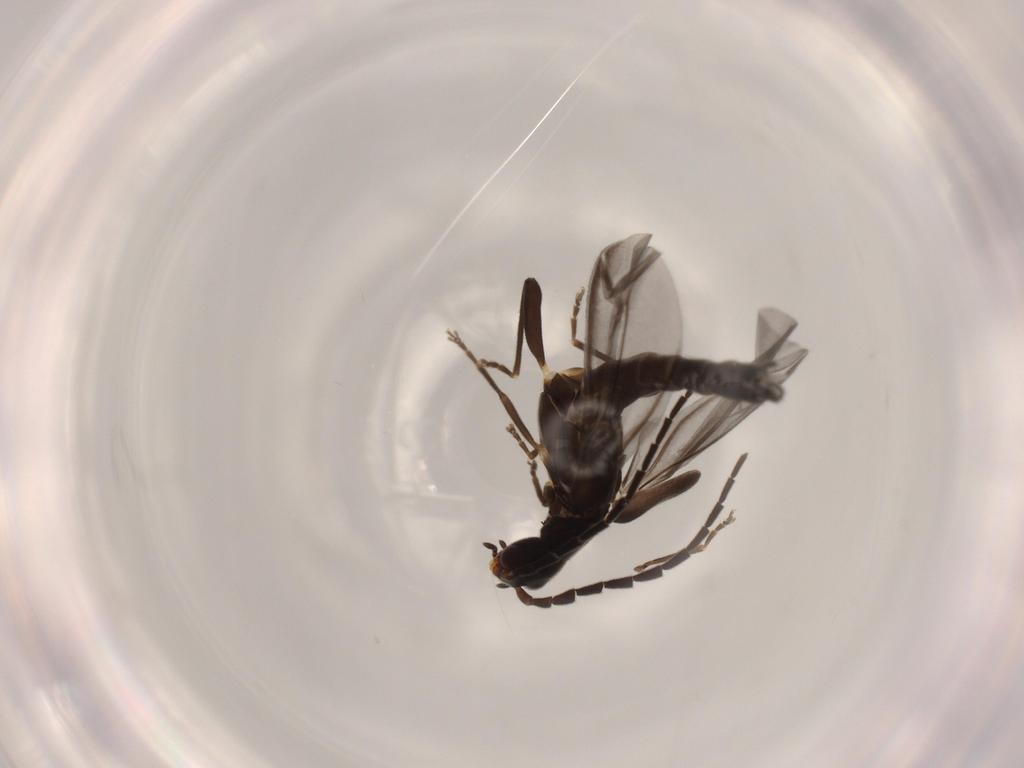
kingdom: Animalia
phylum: Arthropoda
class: Insecta
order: Coleoptera
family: Cantharidae
